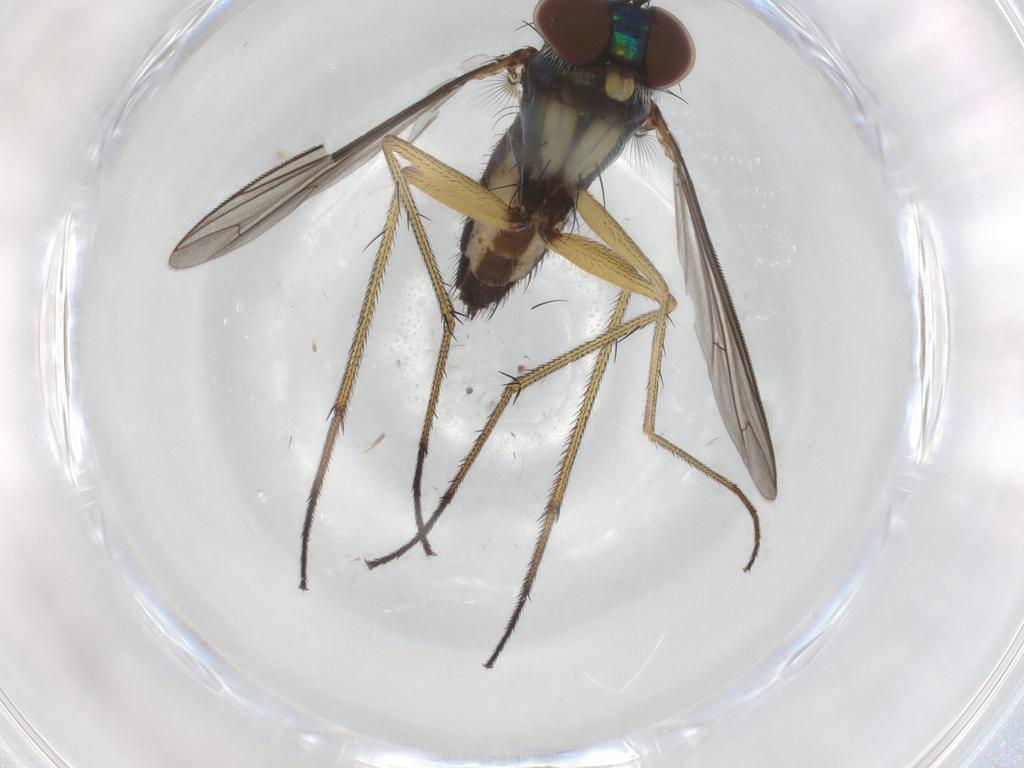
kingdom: Animalia
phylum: Arthropoda
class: Insecta
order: Diptera
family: Dolichopodidae
